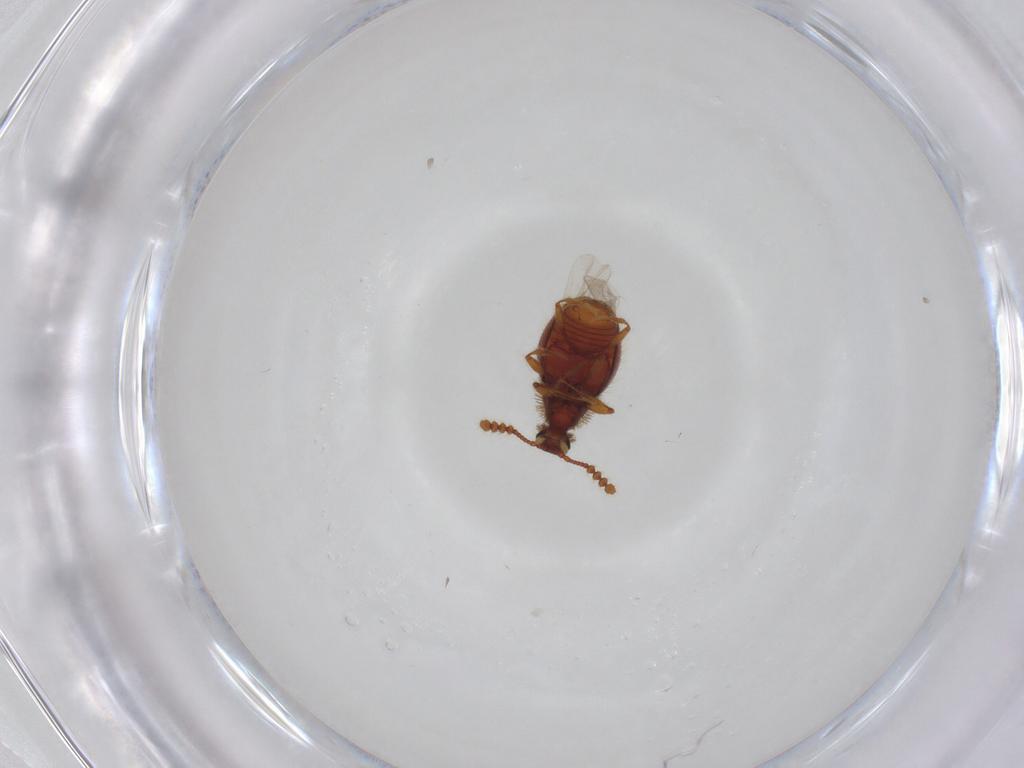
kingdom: Animalia
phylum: Arthropoda
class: Insecta
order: Coleoptera
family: Staphylinidae
